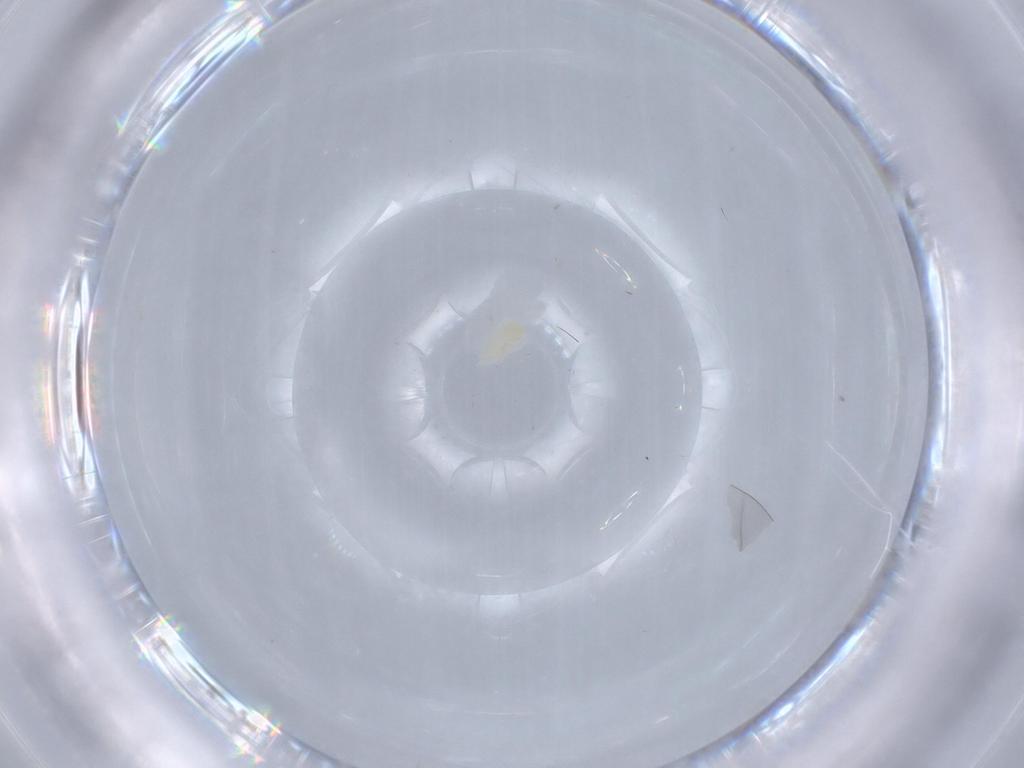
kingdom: Animalia
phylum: Arthropoda
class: Arachnida
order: Trombidiformes
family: Eupodidae
